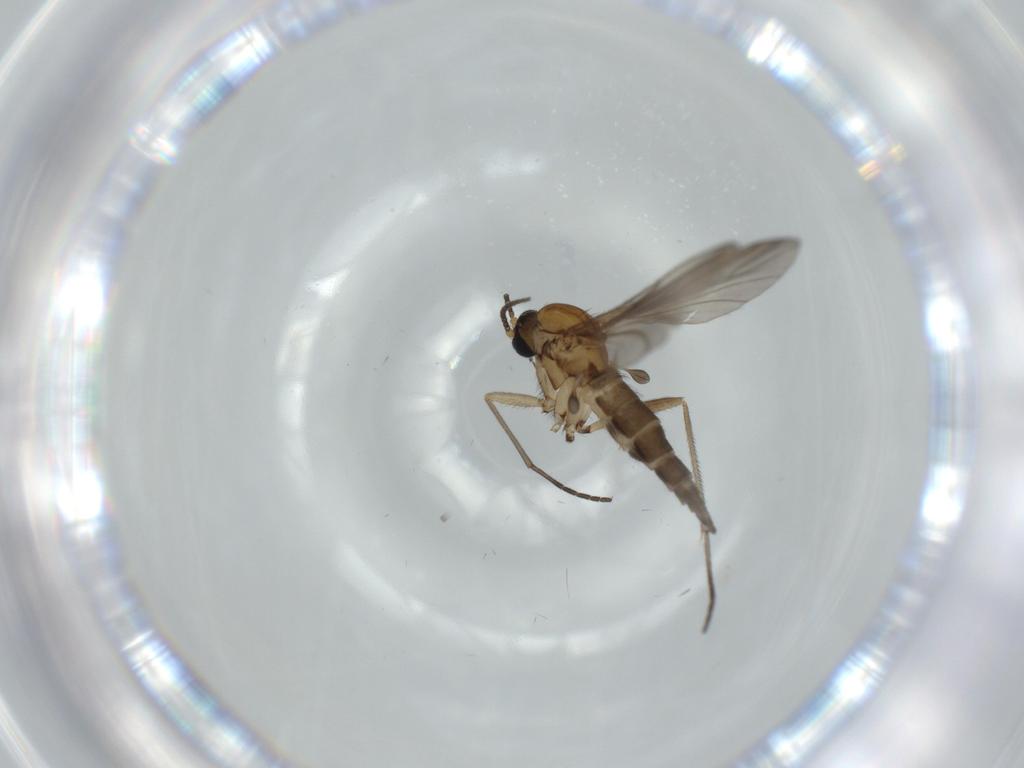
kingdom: Animalia
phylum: Arthropoda
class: Insecta
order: Diptera
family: Sciaridae
